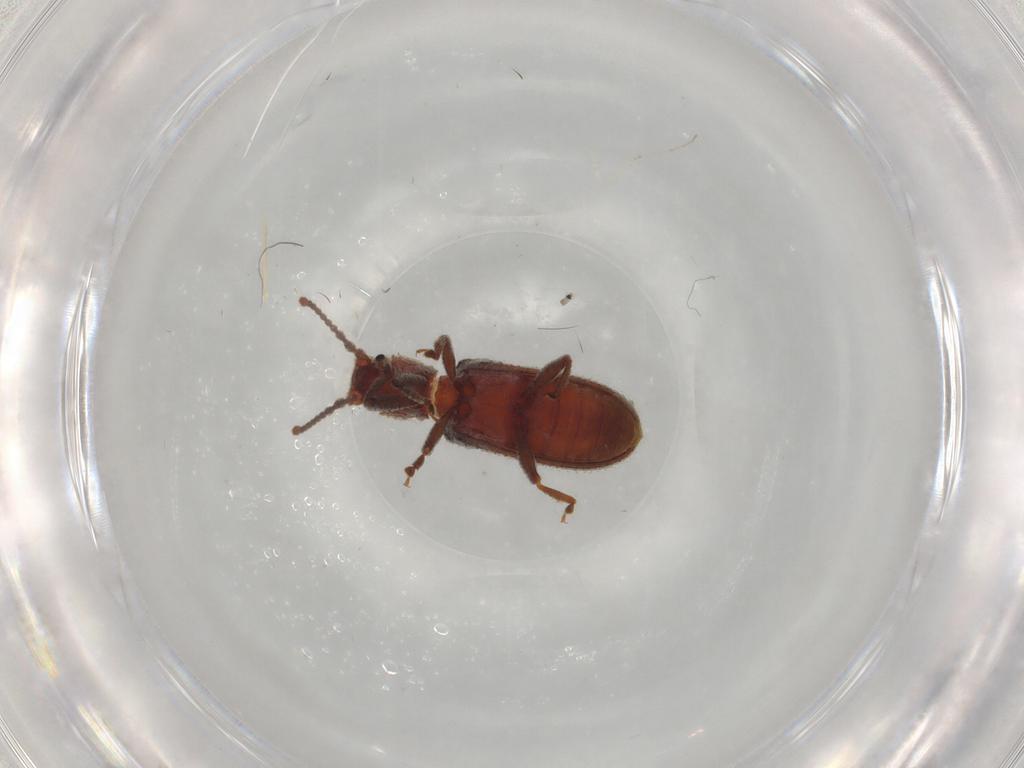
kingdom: Animalia
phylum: Arthropoda
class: Insecta
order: Coleoptera
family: Zopheridae
